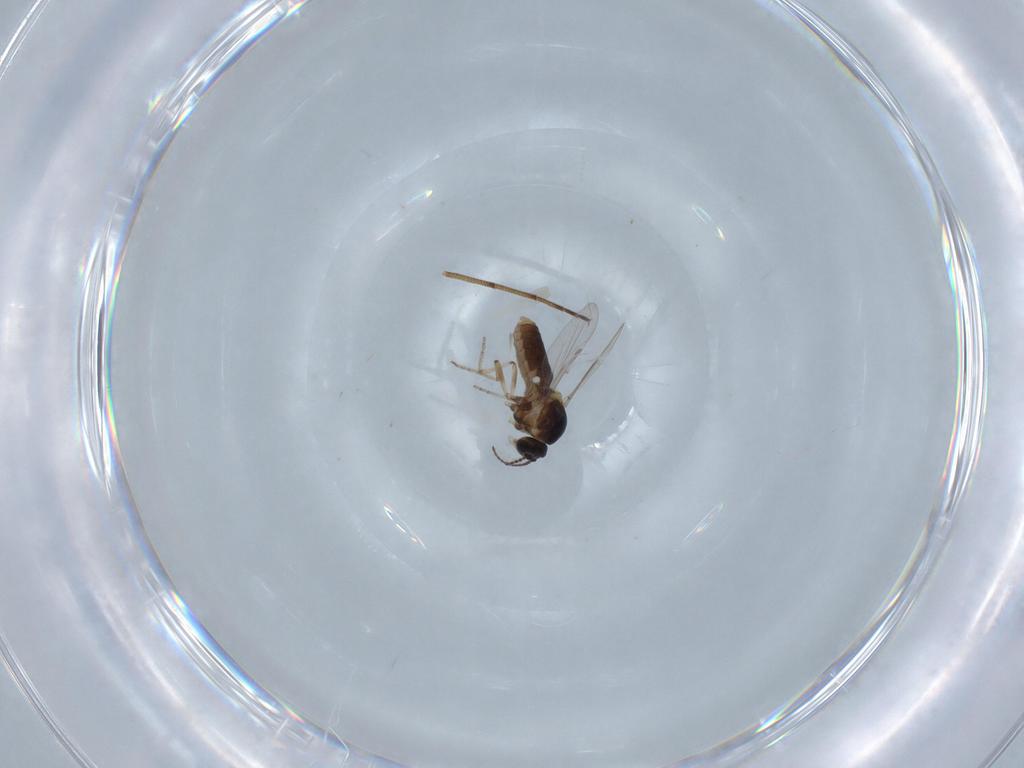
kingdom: Animalia
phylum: Arthropoda
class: Insecta
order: Diptera
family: Ceratopogonidae
